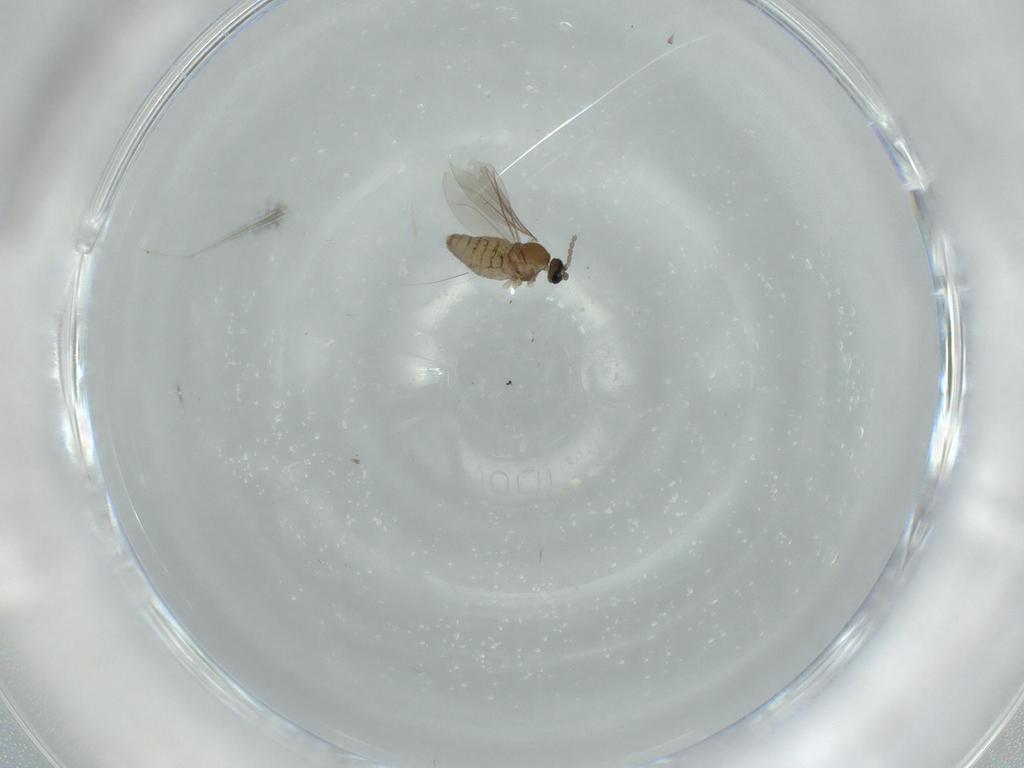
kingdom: Animalia
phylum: Arthropoda
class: Insecta
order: Diptera
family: Cecidomyiidae
